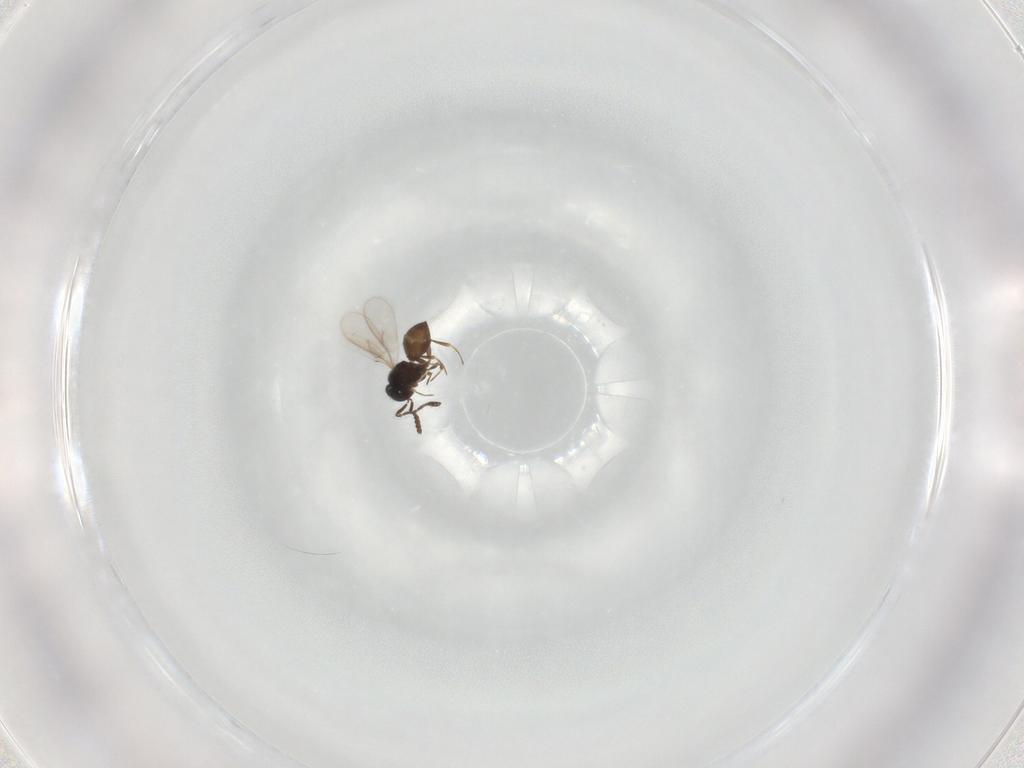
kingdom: Animalia
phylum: Arthropoda
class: Insecta
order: Hymenoptera
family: Scelionidae
